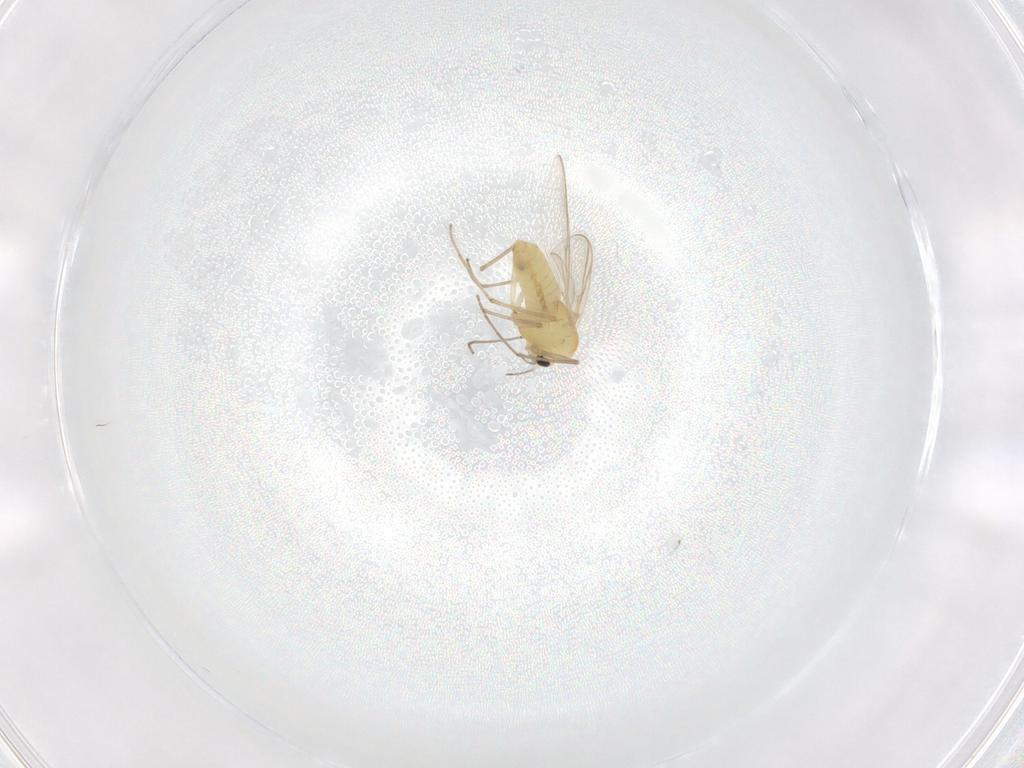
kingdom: Animalia
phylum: Arthropoda
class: Insecta
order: Diptera
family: Chironomidae
